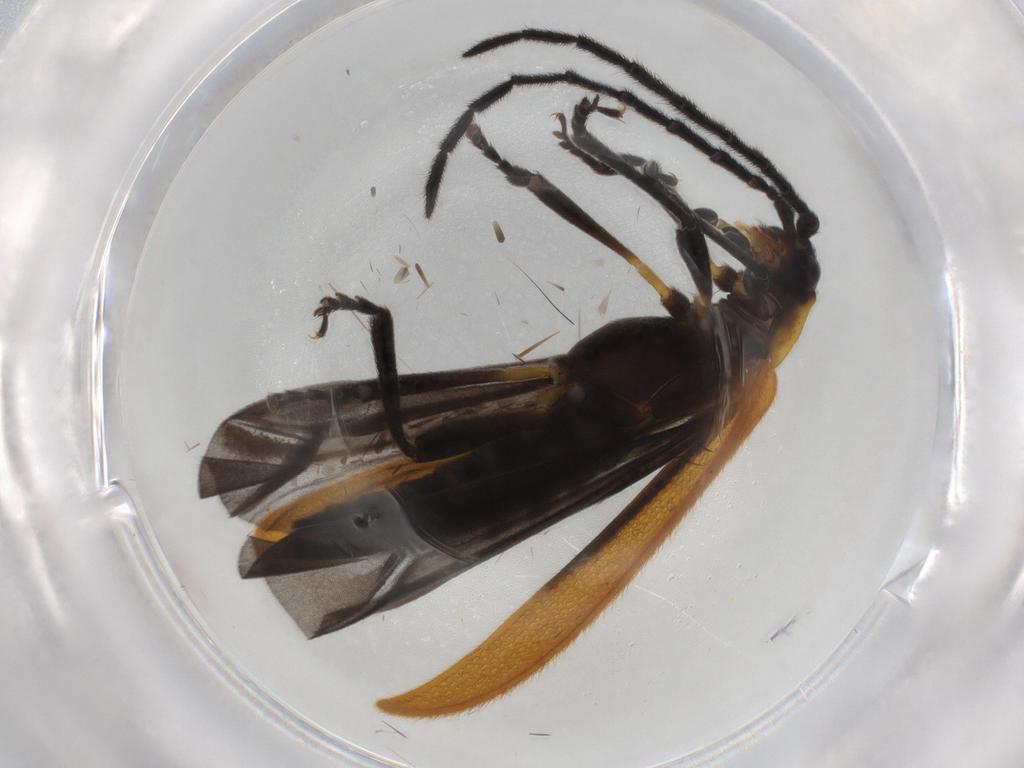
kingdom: Animalia
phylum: Arthropoda
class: Insecta
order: Coleoptera
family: Lycidae
